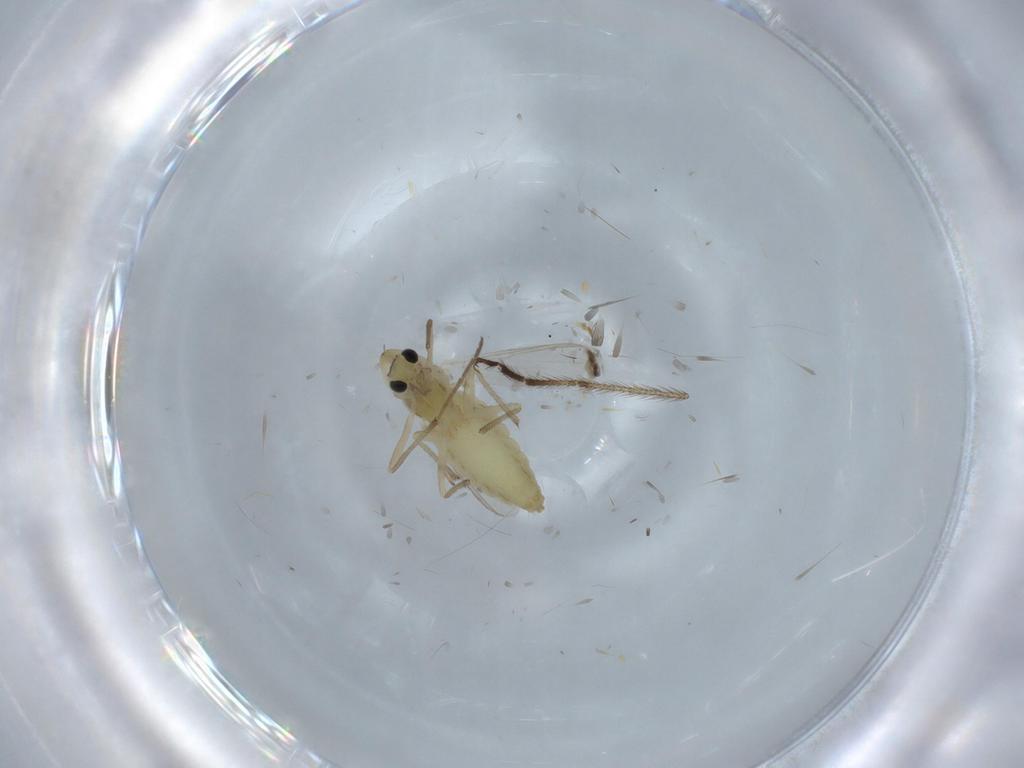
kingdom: Animalia
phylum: Arthropoda
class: Insecta
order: Diptera
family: Chironomidae
